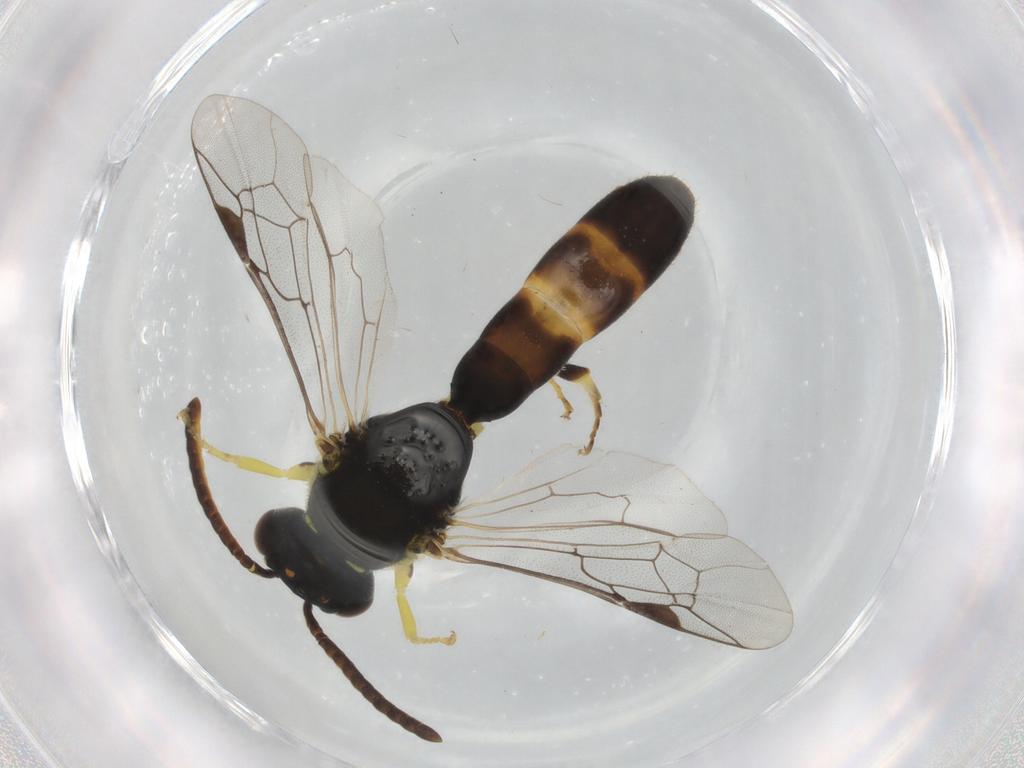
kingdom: Animalia
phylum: Arthropoda
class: Insecta
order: Hymenoptera
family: Colletidae
